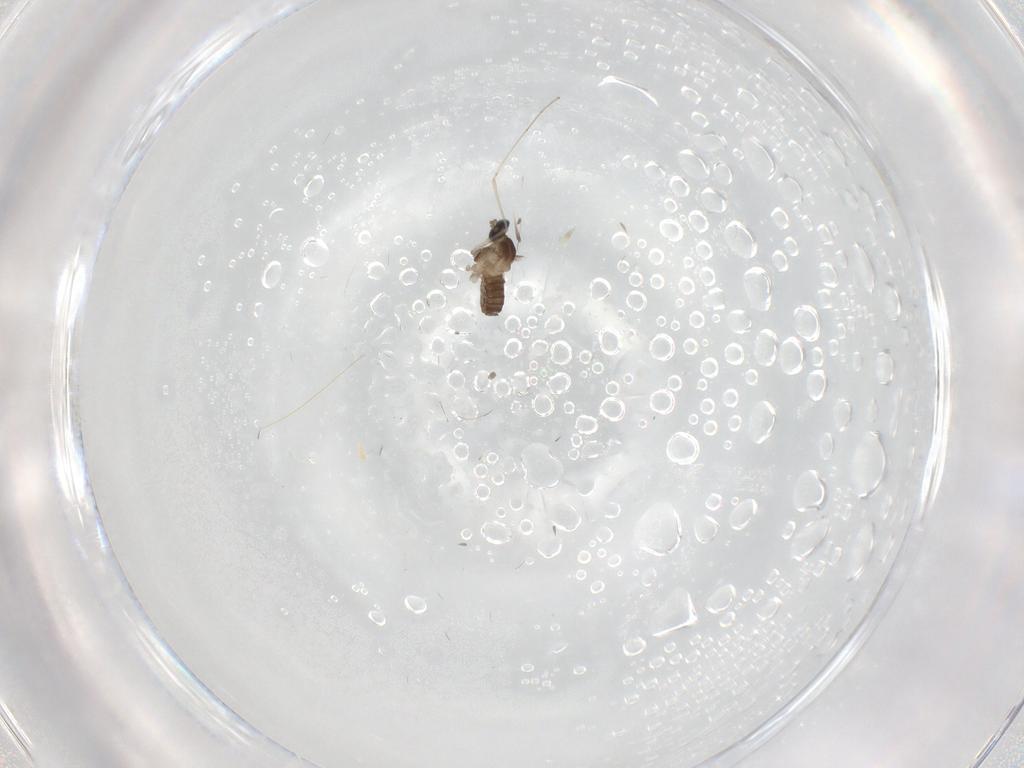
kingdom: Animalia
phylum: Arthropoda
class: Insecta
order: Diptera
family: Cecidomyiidae
